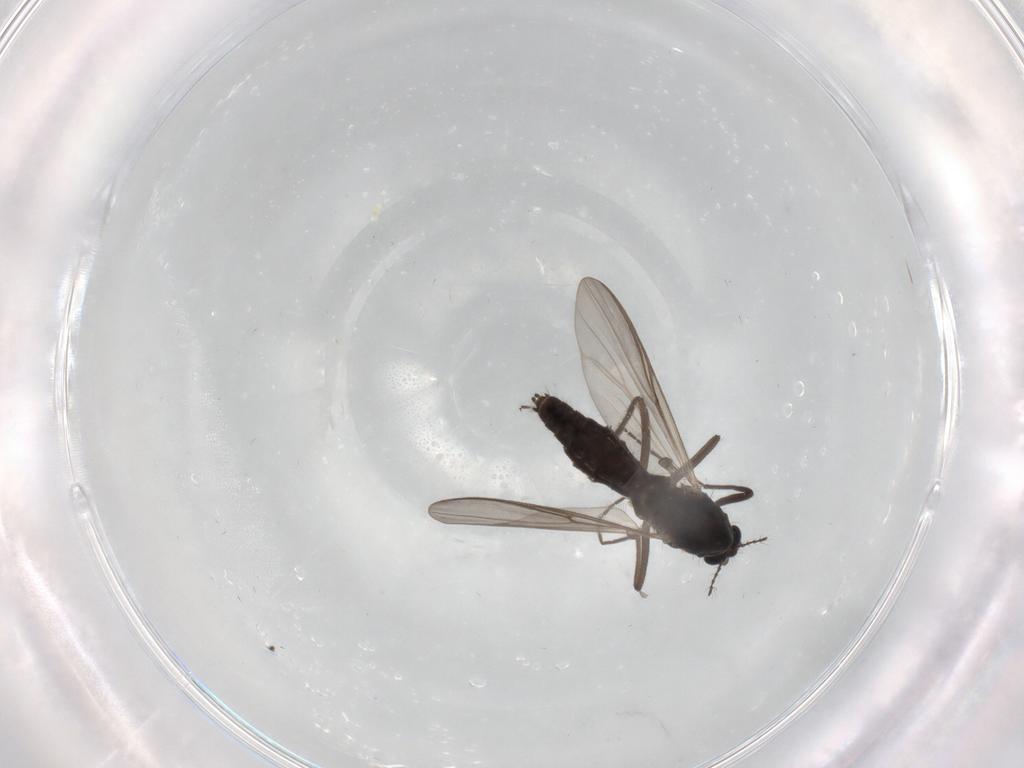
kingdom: Animalia
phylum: Arthropoda
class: Insecta
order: Diptera
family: Chironomidae
